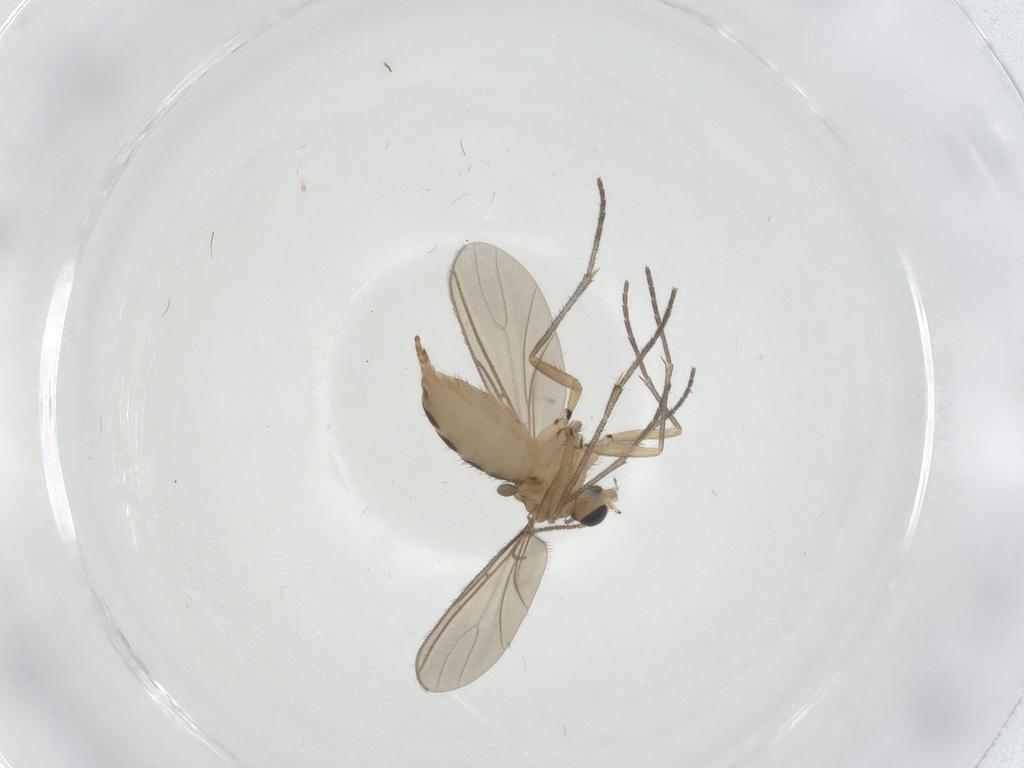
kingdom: Animalia
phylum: Arthropoda
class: Insecta
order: Diptera
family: Sciaridae
